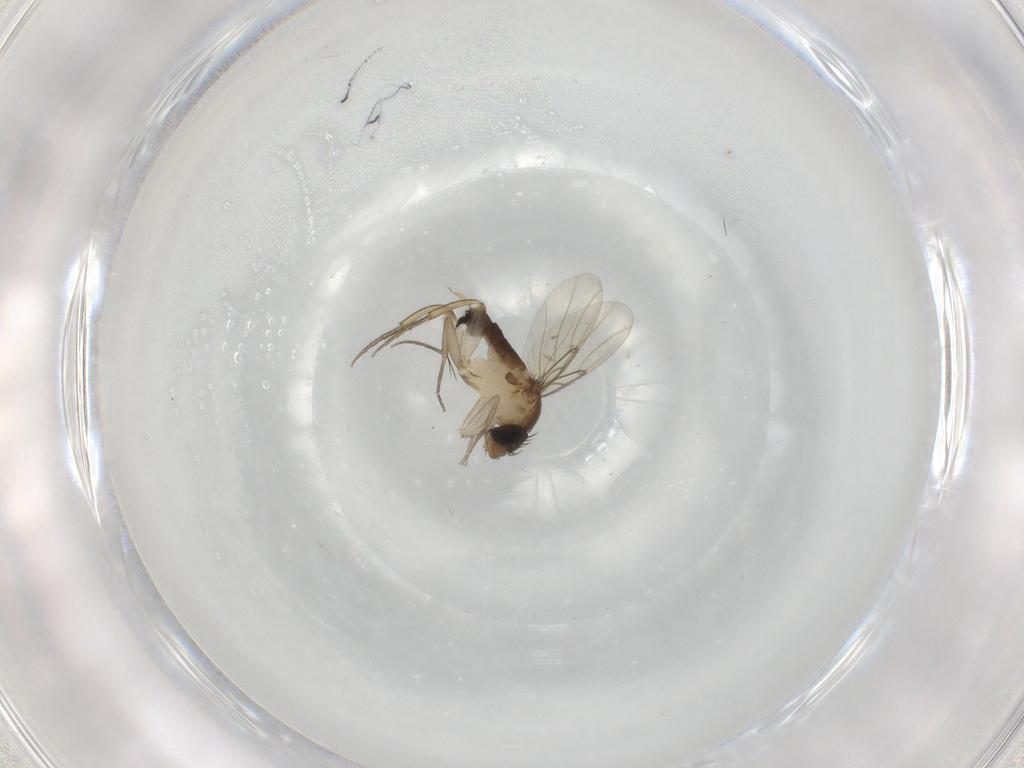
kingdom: Animalia
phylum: Arthropoda
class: Insecta
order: Diptera
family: Phoridae
